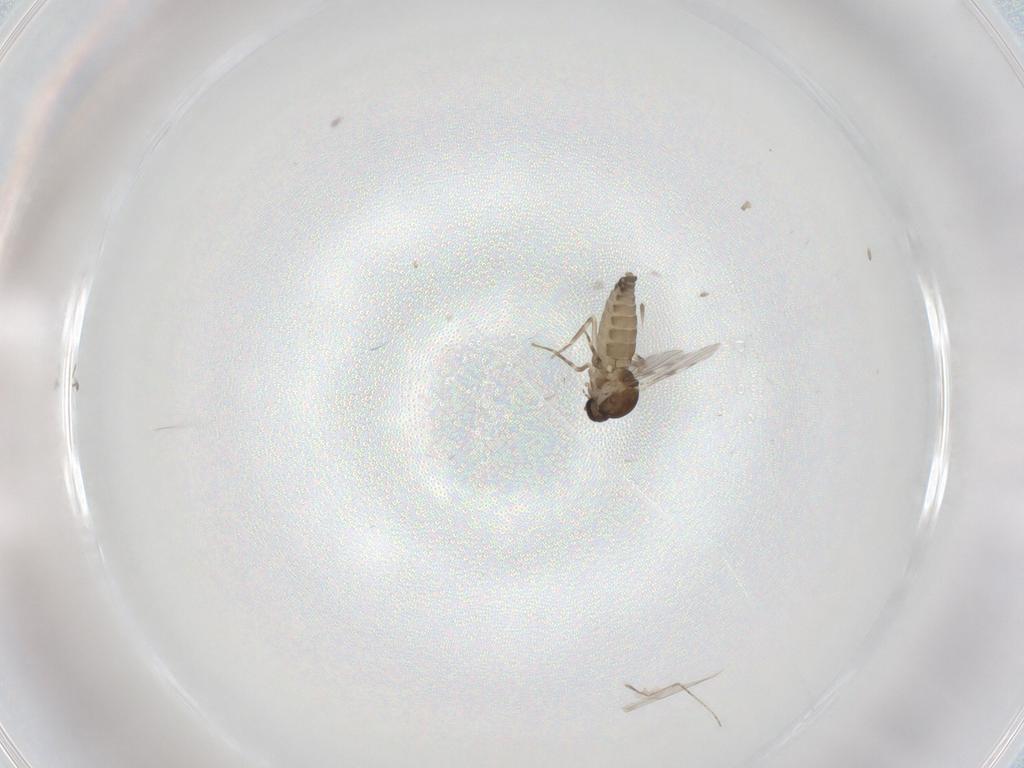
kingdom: Animalia
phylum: Arthropoda
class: Insecta
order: Diptera
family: Ceratopogonidae
